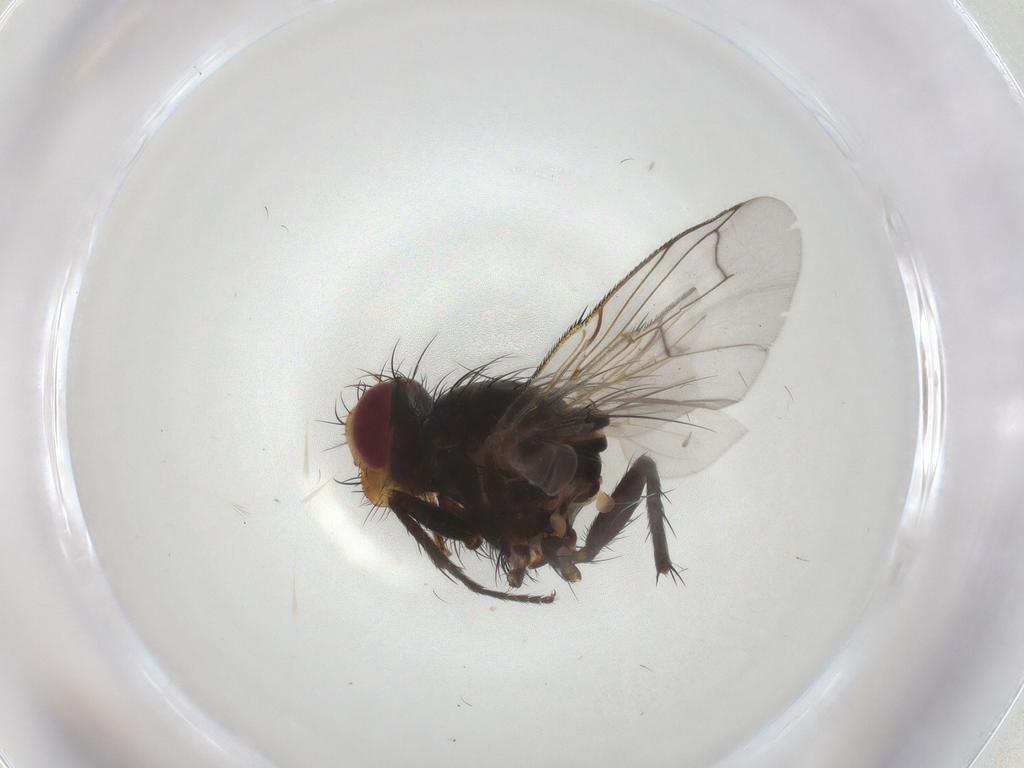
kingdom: Animalia
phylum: Arthropoda
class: Insecta
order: Diptera
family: Tachinidae
